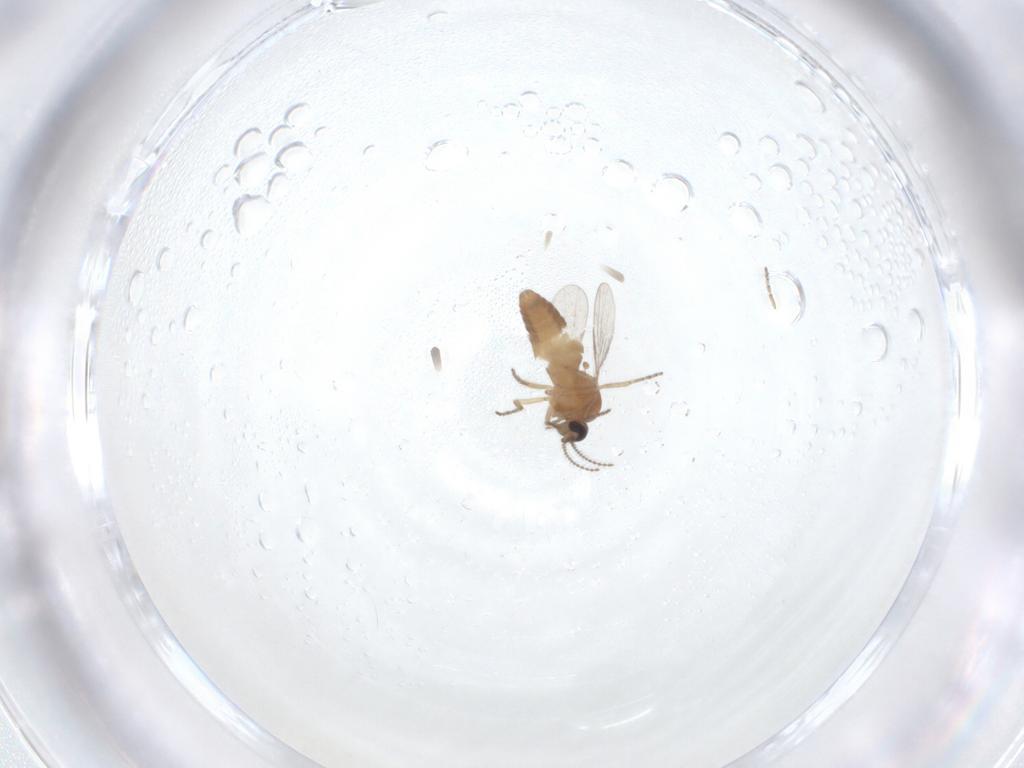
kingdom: Animalia
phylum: Arthropoda
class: Insecta
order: Diptera
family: Ceratopogonidae
